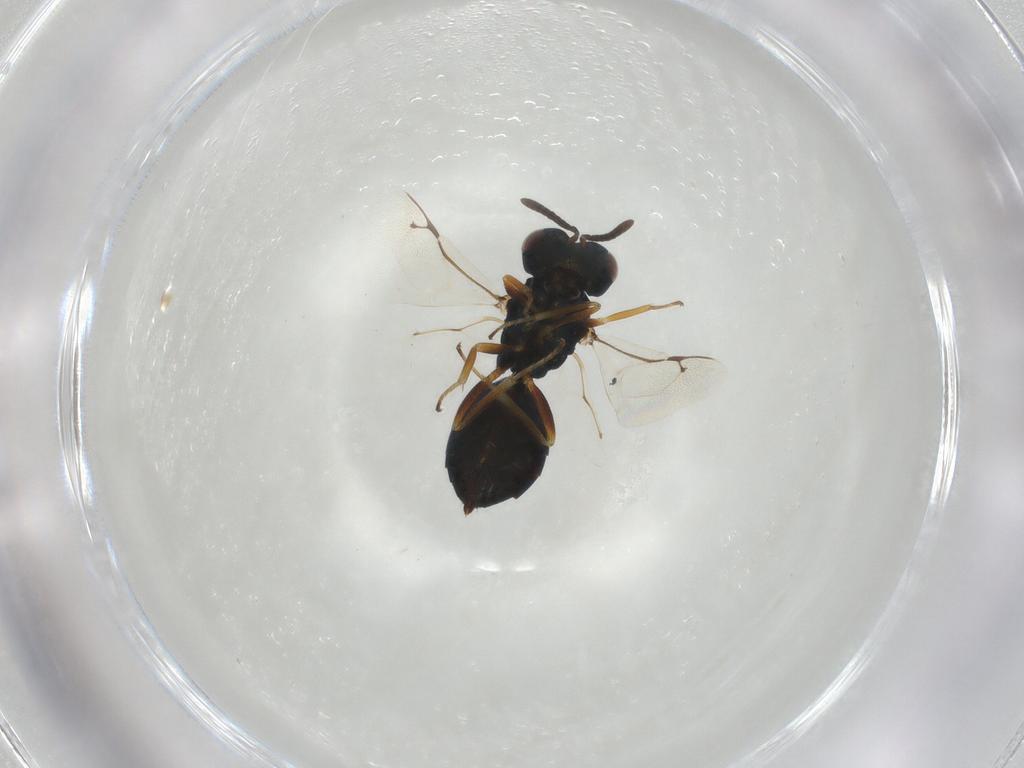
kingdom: Animalia
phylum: Arthropoda
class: Insecta
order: Hymenoptera
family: Pteromalidae
